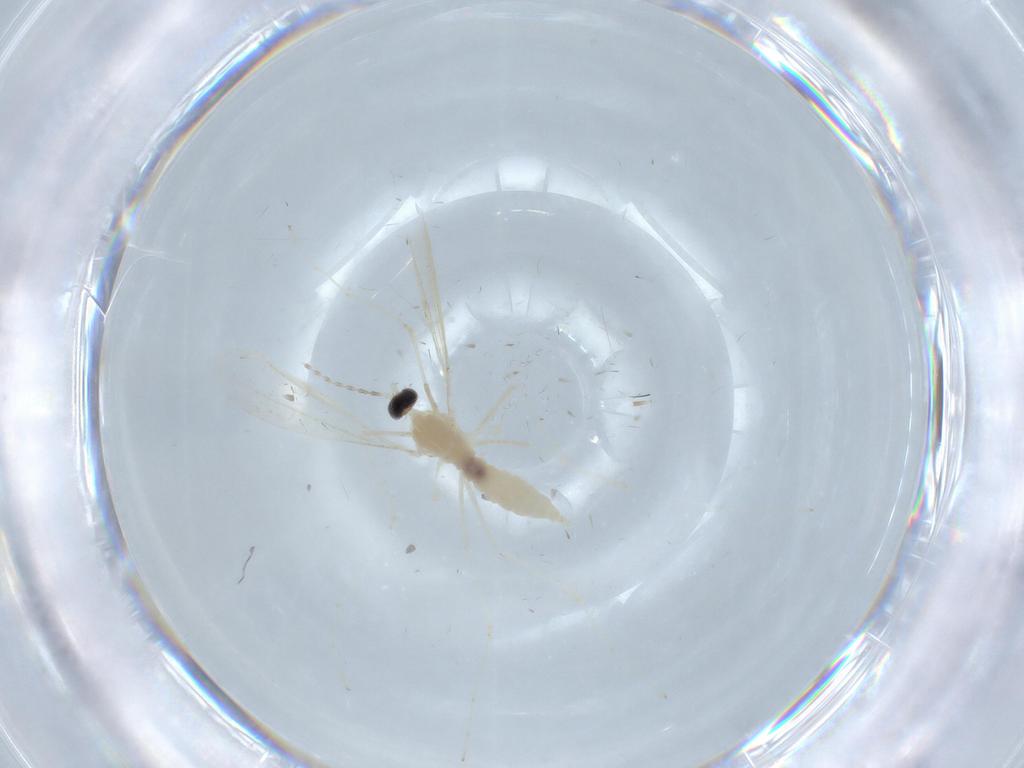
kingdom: Animalia
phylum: Arthropoda
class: Insecta
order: Diptera
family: Cecidomyiidae
